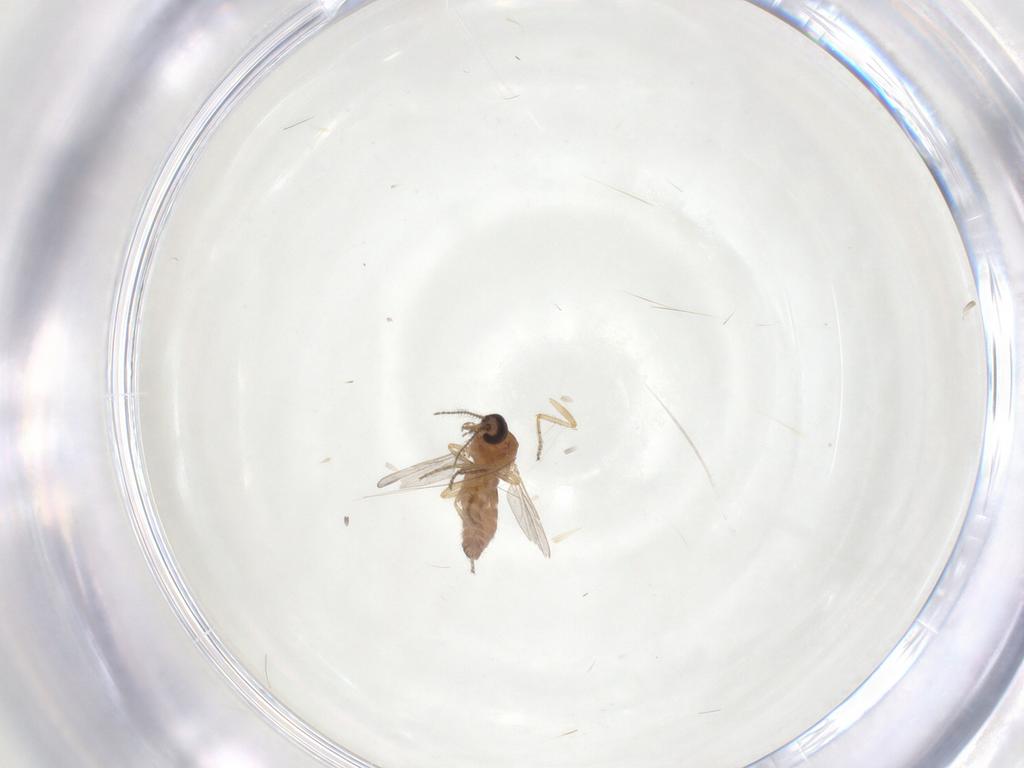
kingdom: Animalia
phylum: Arthropoda
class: Insecta
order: Diptera
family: Ceratopogonidae
